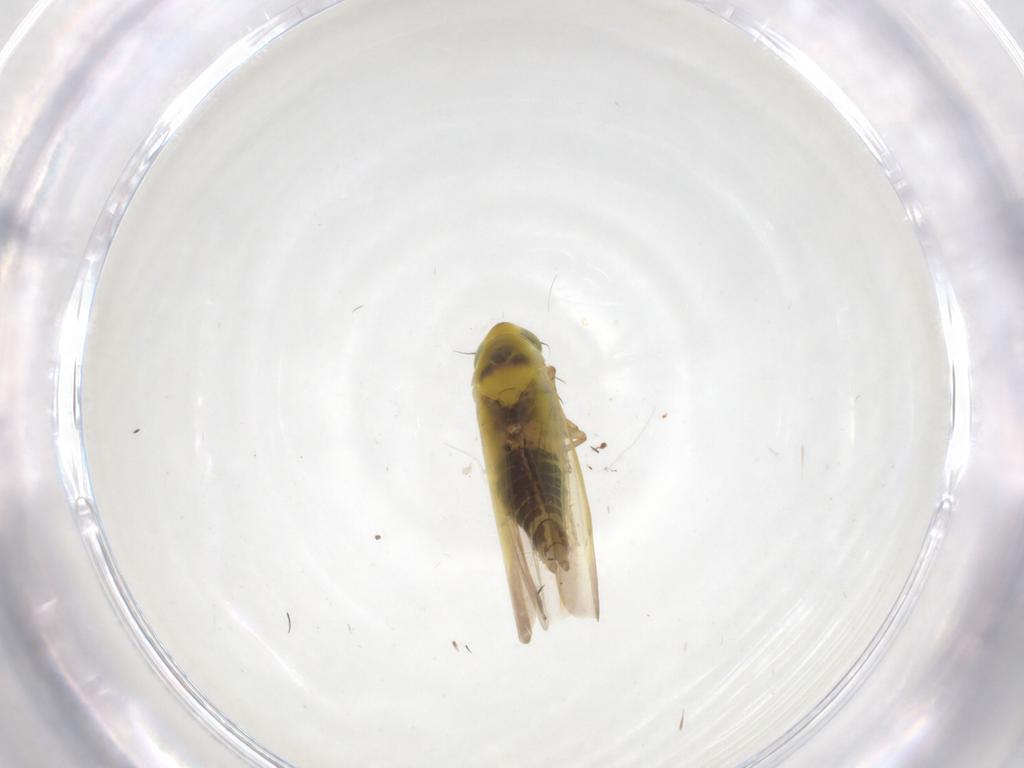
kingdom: Animalia
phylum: Arthropoda
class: Insecta
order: Hemiptera
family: Cicadellidae
